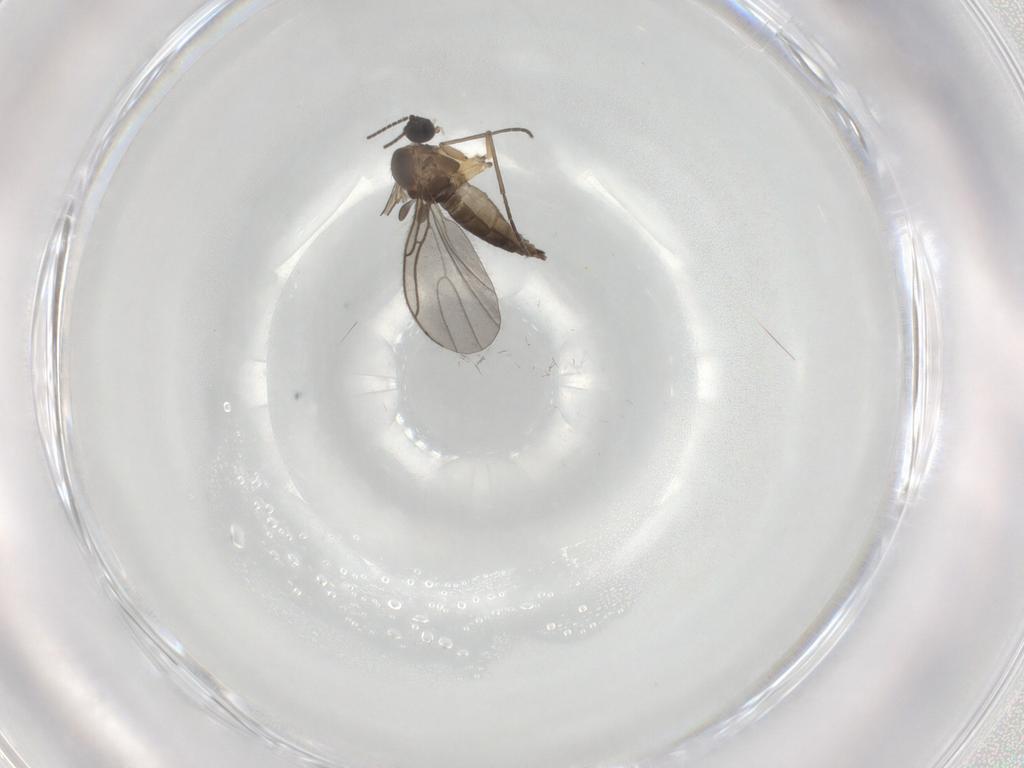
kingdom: Animalia
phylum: Arthropoda
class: Insecta
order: Diptera
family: Sciaridae
